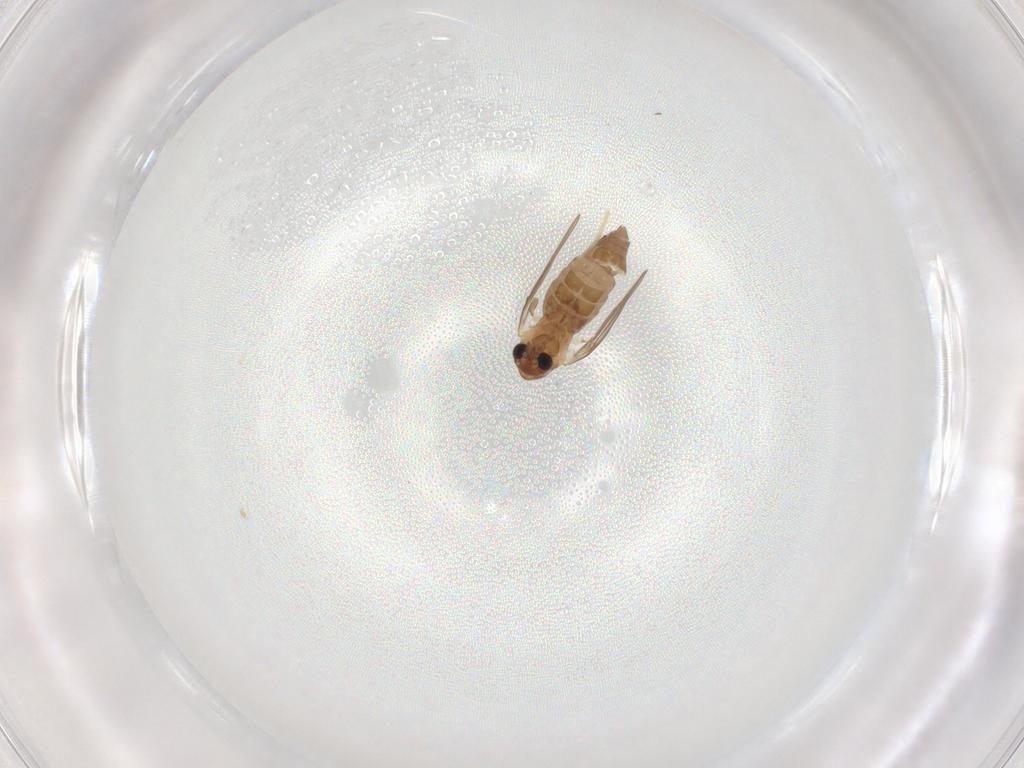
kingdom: Animalia
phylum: Arthropoda
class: Insecta
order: Diptera
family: Chironomidae
